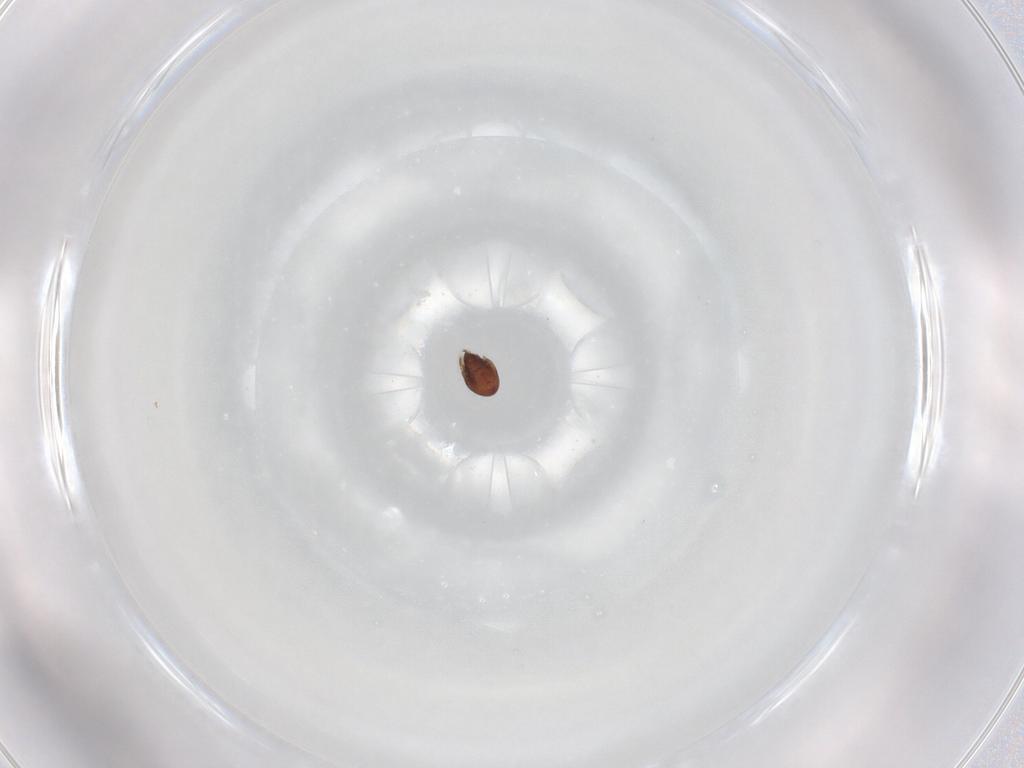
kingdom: Animalia
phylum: Arthropoda
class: Arachnida
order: Sarcoptiformes
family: Ceratozetidae
